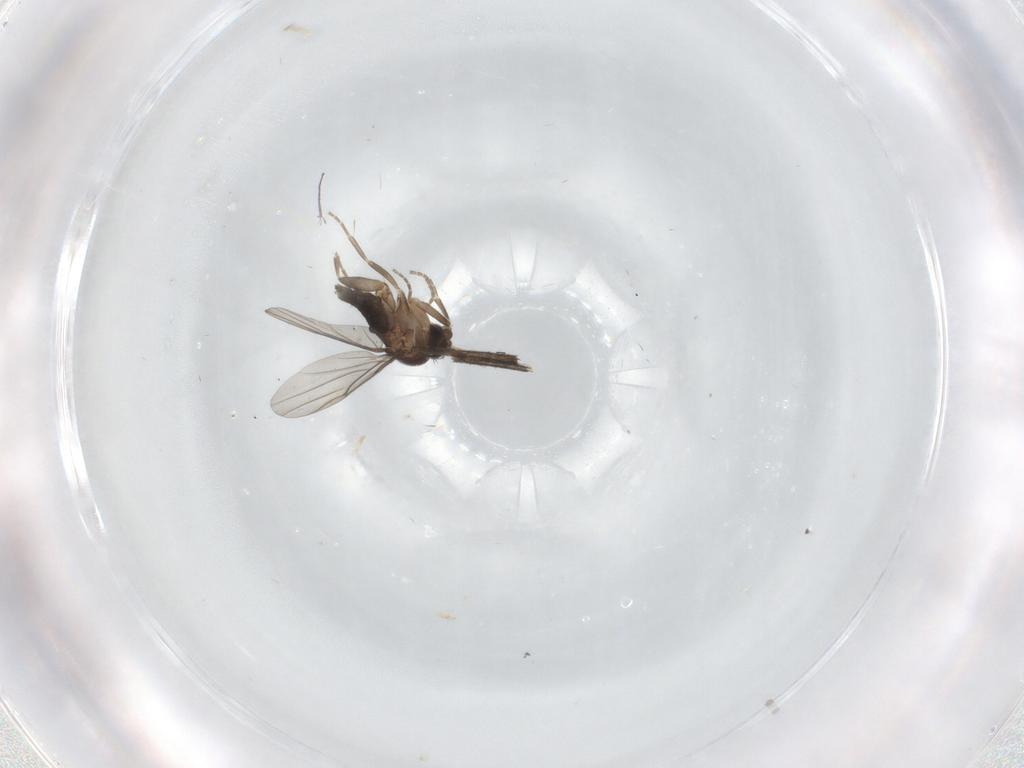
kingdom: Animalia
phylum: Arthropoda
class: Insecta
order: Diptera
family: Phoridae
